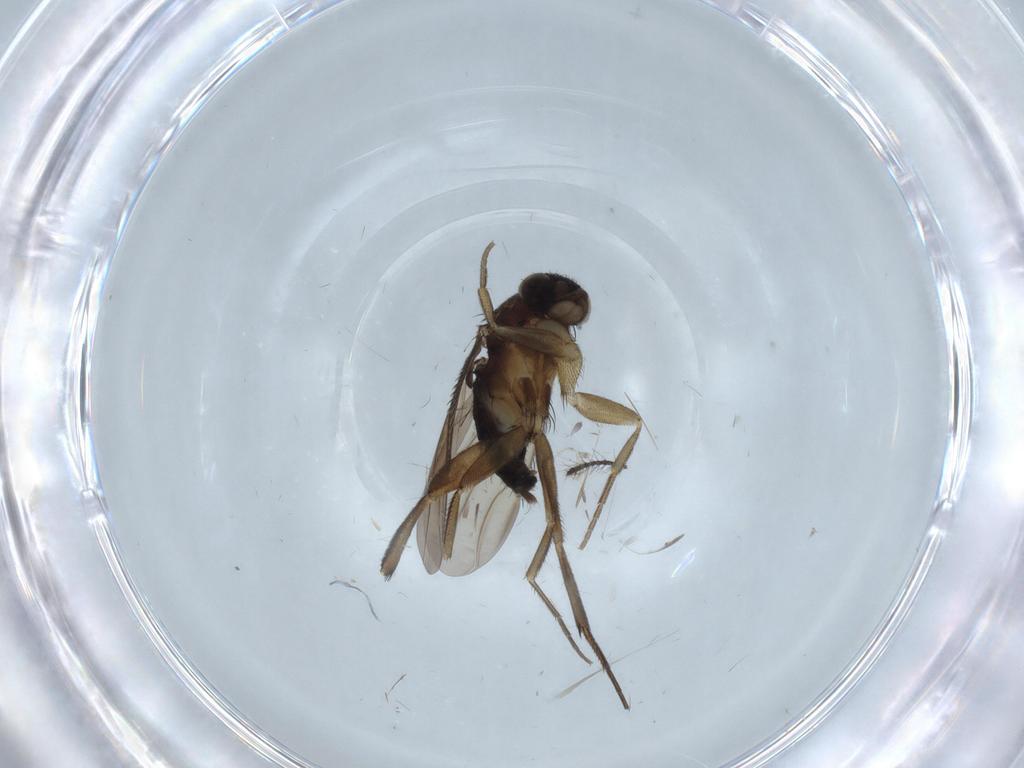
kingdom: Animalia
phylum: Arthropoda
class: Insecta
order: Diptera
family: Phoridae
